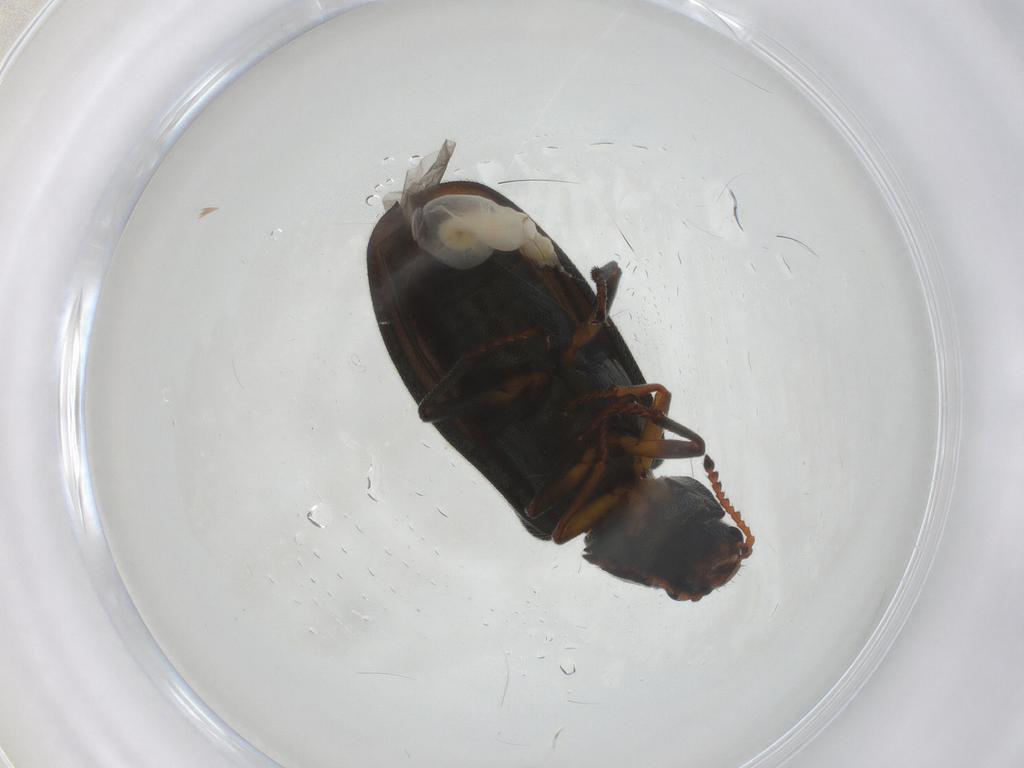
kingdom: Animalia
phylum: Arthropoda
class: Insecta
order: Coleoptera
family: Melyridae
